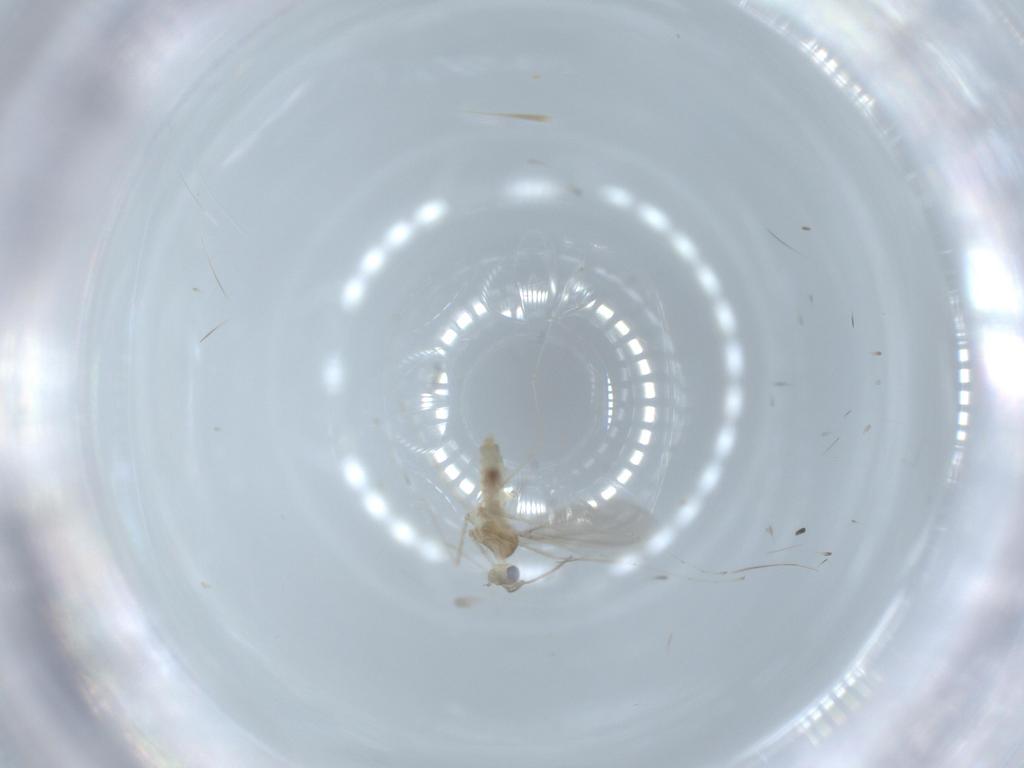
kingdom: Animalia
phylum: Arthropoda
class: Insecta
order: Diptera
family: Cecidomyiidae
